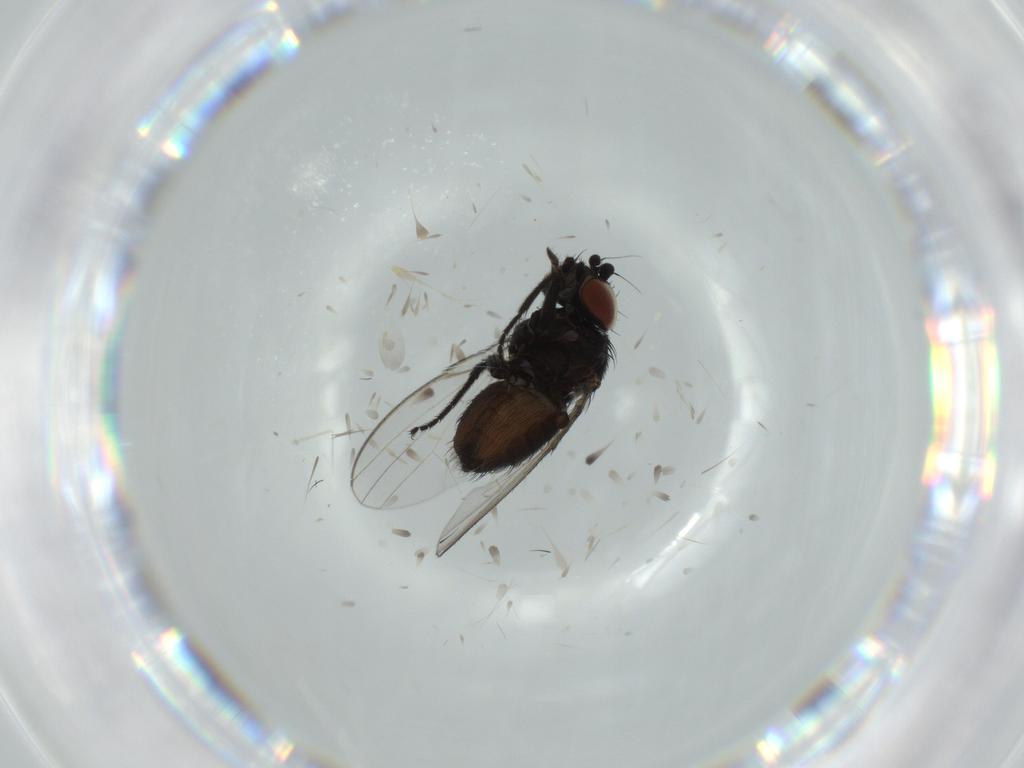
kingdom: Animalia
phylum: Arthropoda
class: Insecta
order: Diptera
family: Milichiidae
